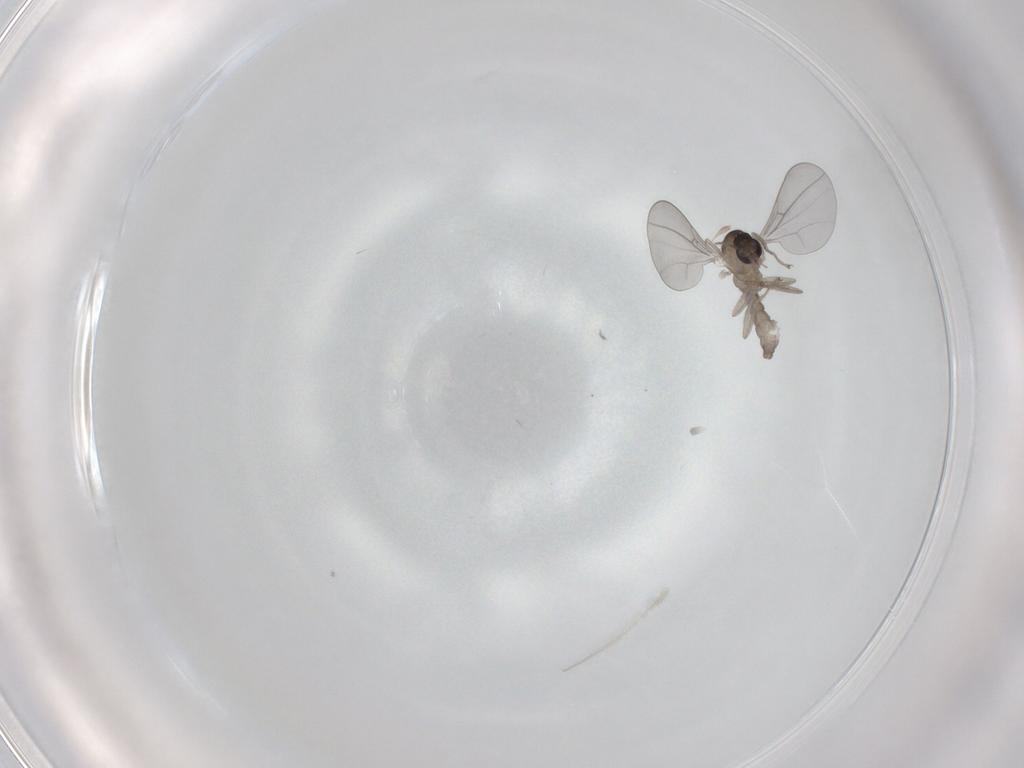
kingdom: Animalia
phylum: Arthropoda
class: Insecta
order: Diptera
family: Cecidomyiidae
